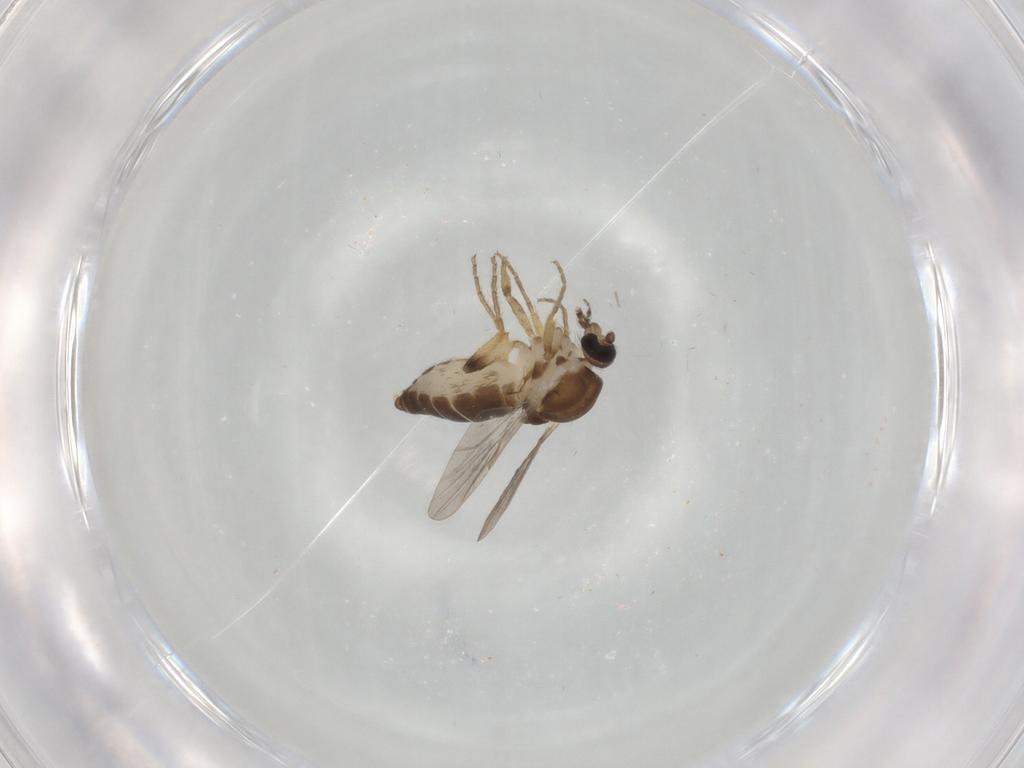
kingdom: Animalia
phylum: Arthropoda
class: Insecta
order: Diptera
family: Ceratopogonidae
